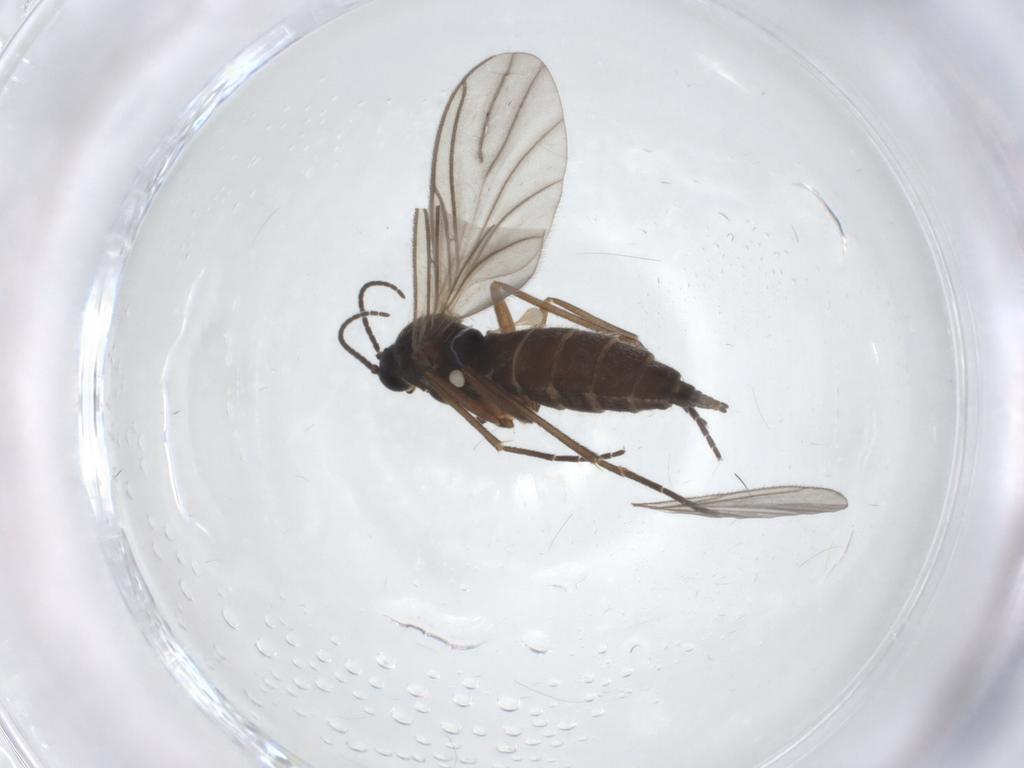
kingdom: Animalia
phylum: Arthropoda
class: Insecta
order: Diptera
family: Sciaridae
